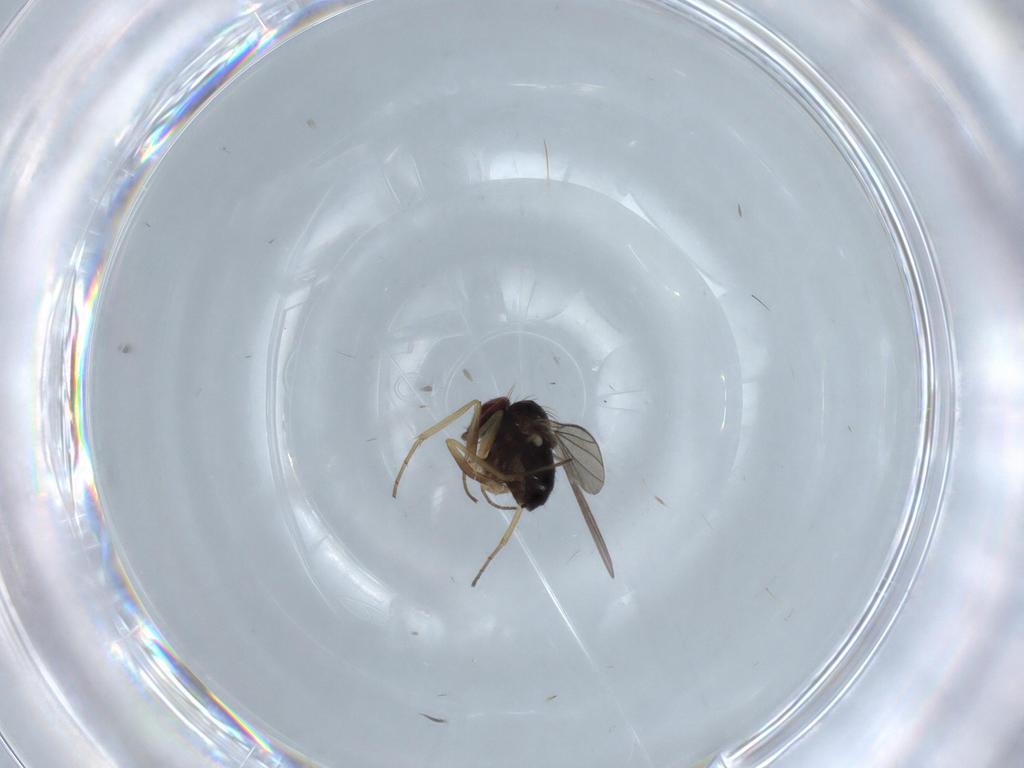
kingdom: Animalia
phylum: Arthropoda
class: Insecta
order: Diptera
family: Dolichopodidae
